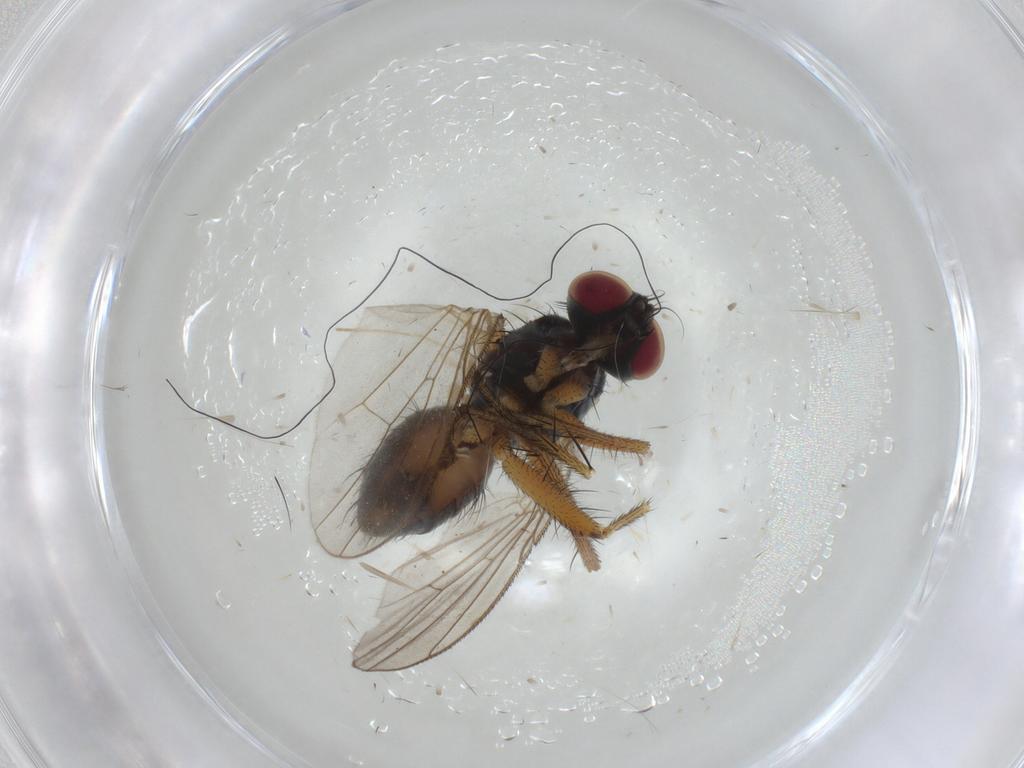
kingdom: Animalia
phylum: Arthropoda
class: Insecta
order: Diptera
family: Muscidae
